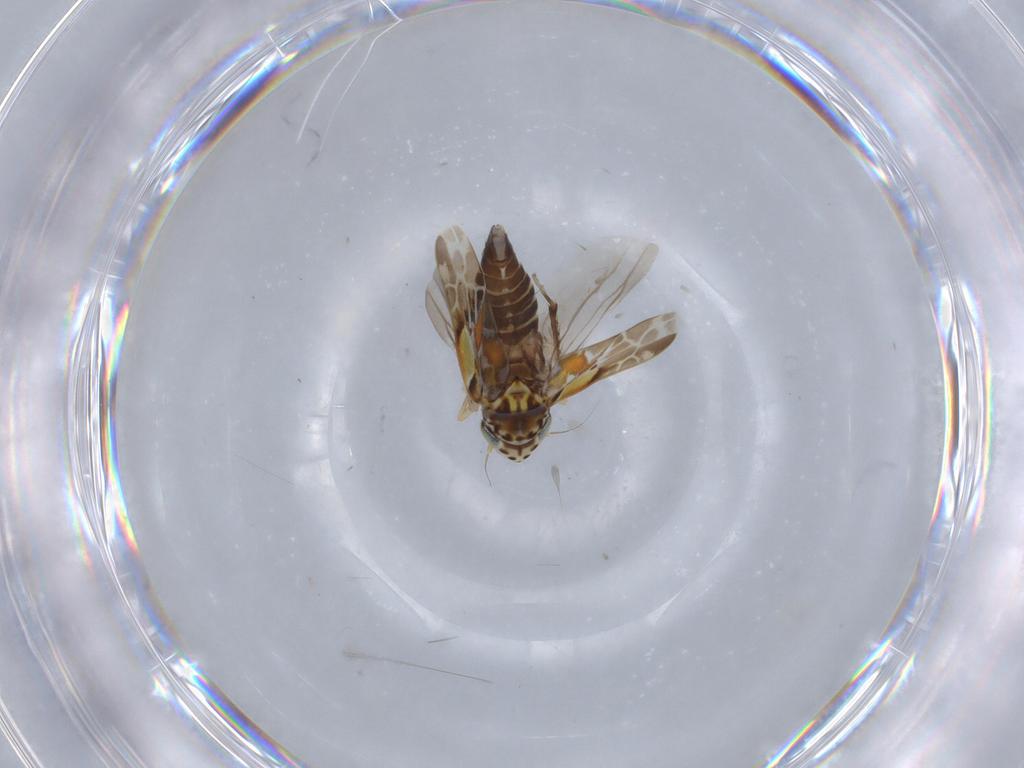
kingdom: Animalia
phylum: Arthropoda
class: Insecta
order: Hemiptera
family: Cicadellidae
